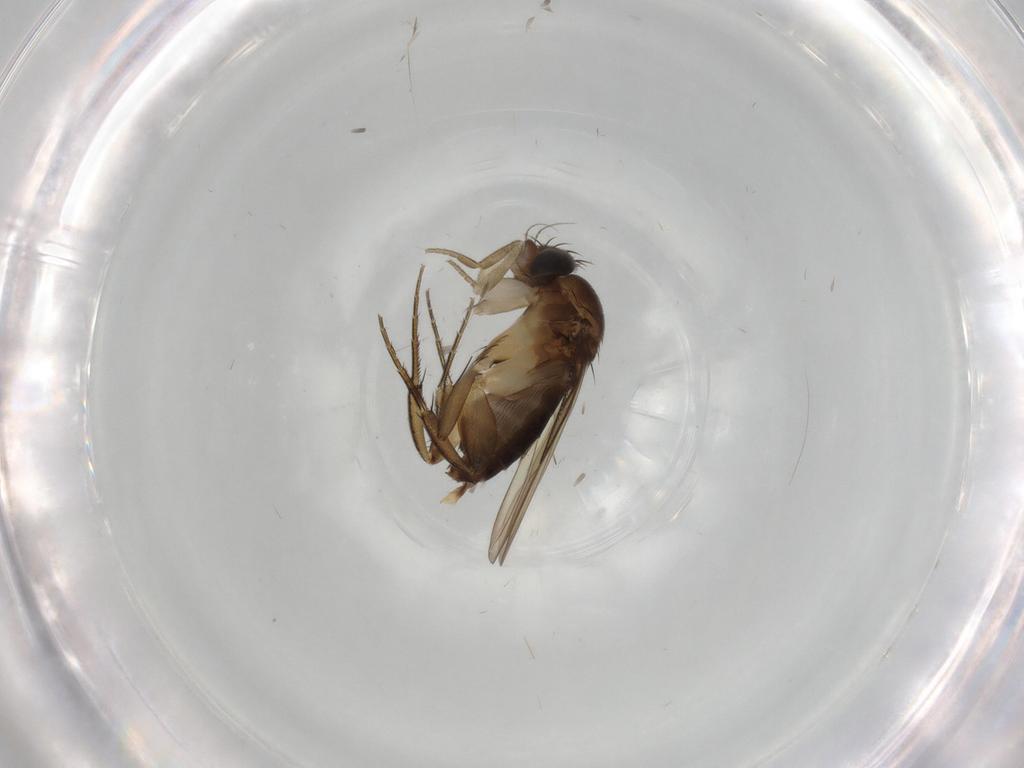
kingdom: Animalia
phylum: Arthropoda
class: Insecta
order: Diptera
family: Phoridae
